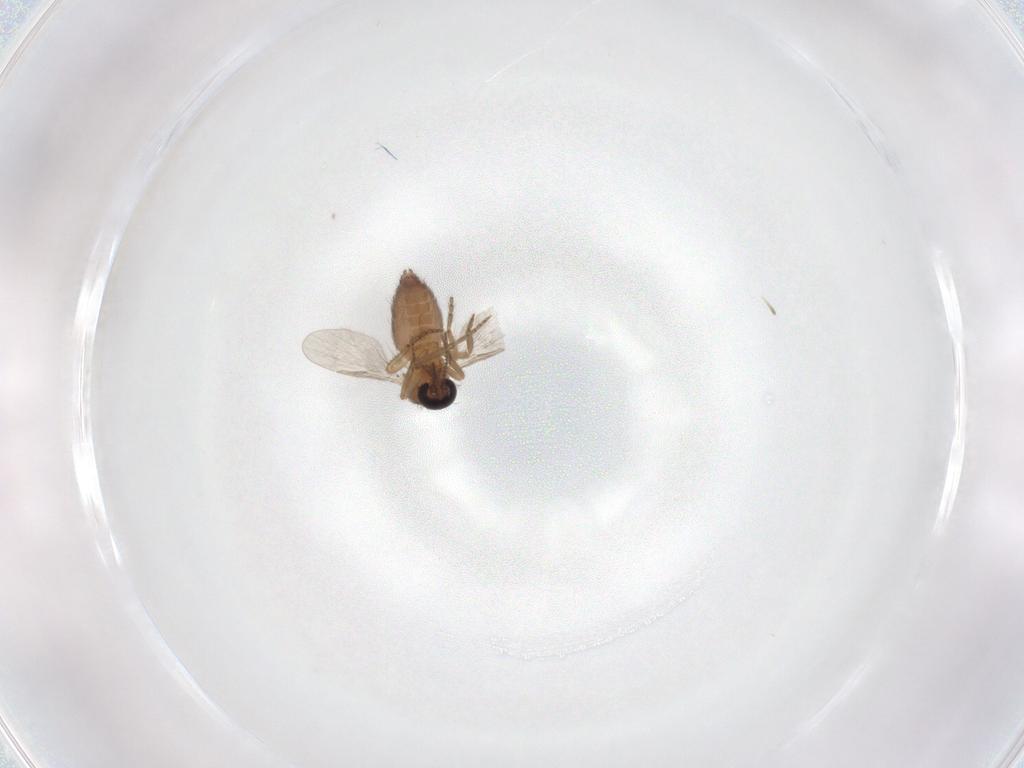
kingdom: Animalia
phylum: Arthropoda
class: Insecta
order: Diptera
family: Ceratopogonidae
